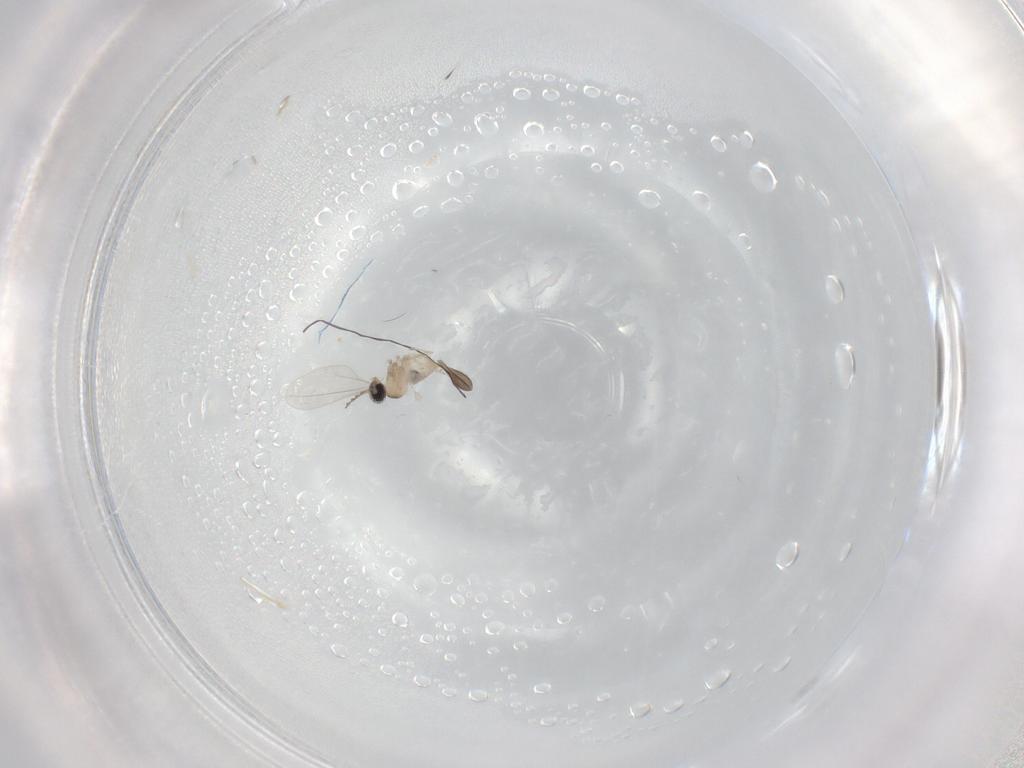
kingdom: Animalia
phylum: Arthropoda
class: Insecta
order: Diptera
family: Cecidomyiidae
